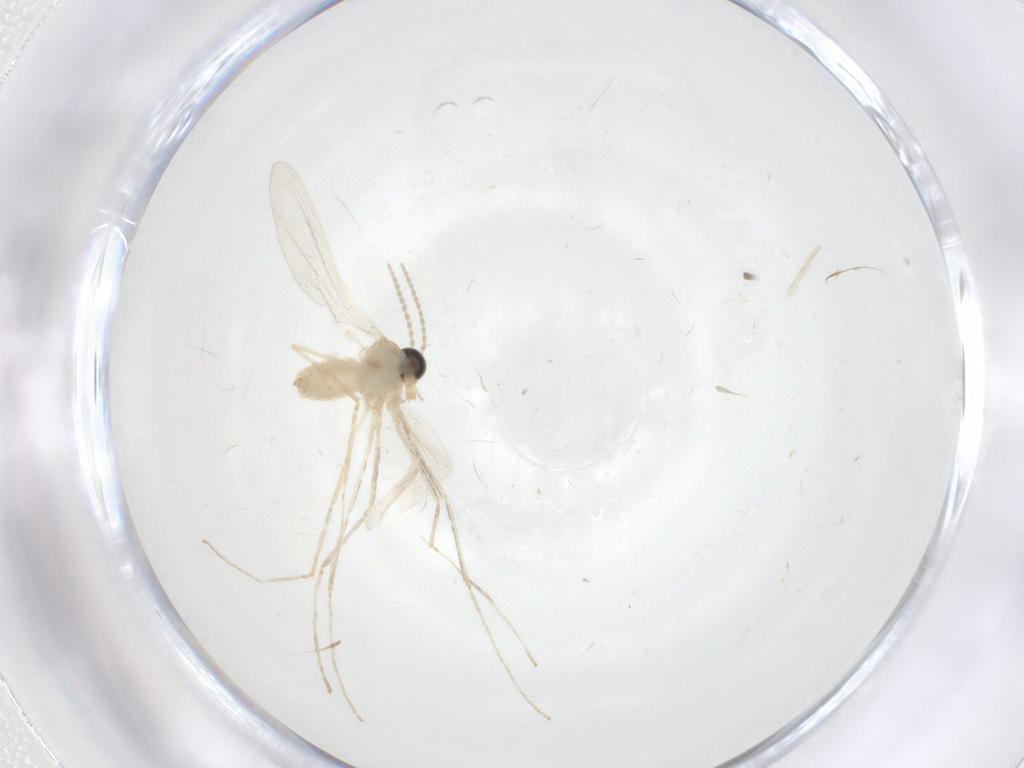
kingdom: Animalia
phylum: Arthropoda
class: Insecta
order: Diptera
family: Cecidomyiidae
